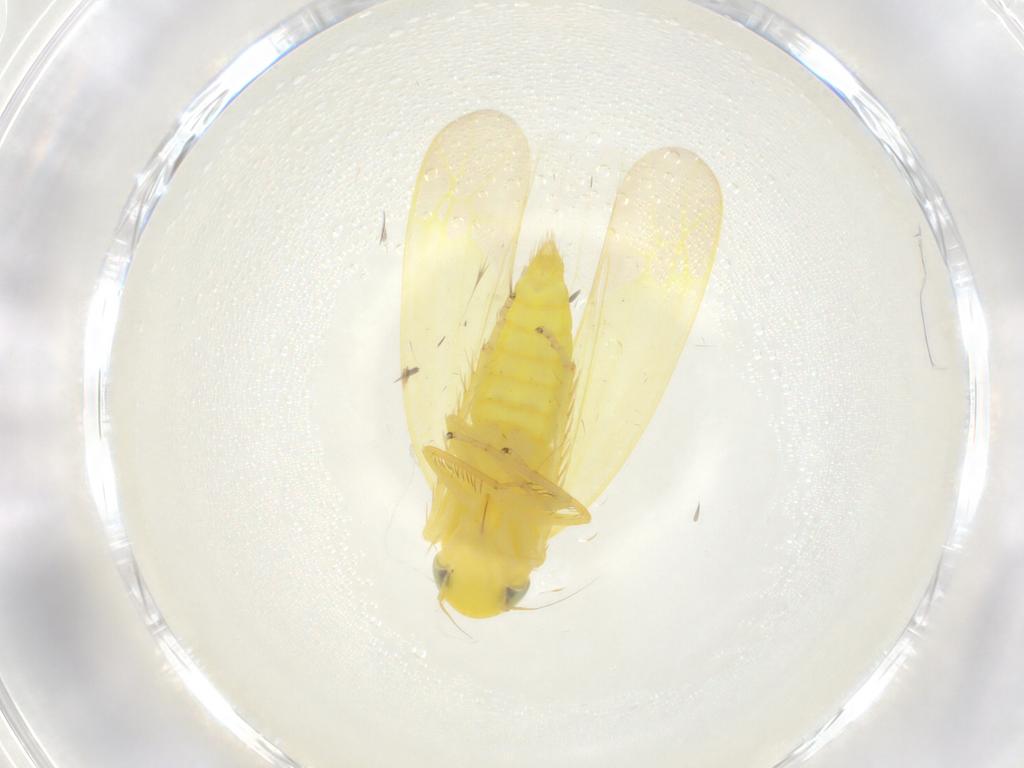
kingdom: Animalia
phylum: Arthropoda
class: Insecta
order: Hemiptera
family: Cicadellidae
